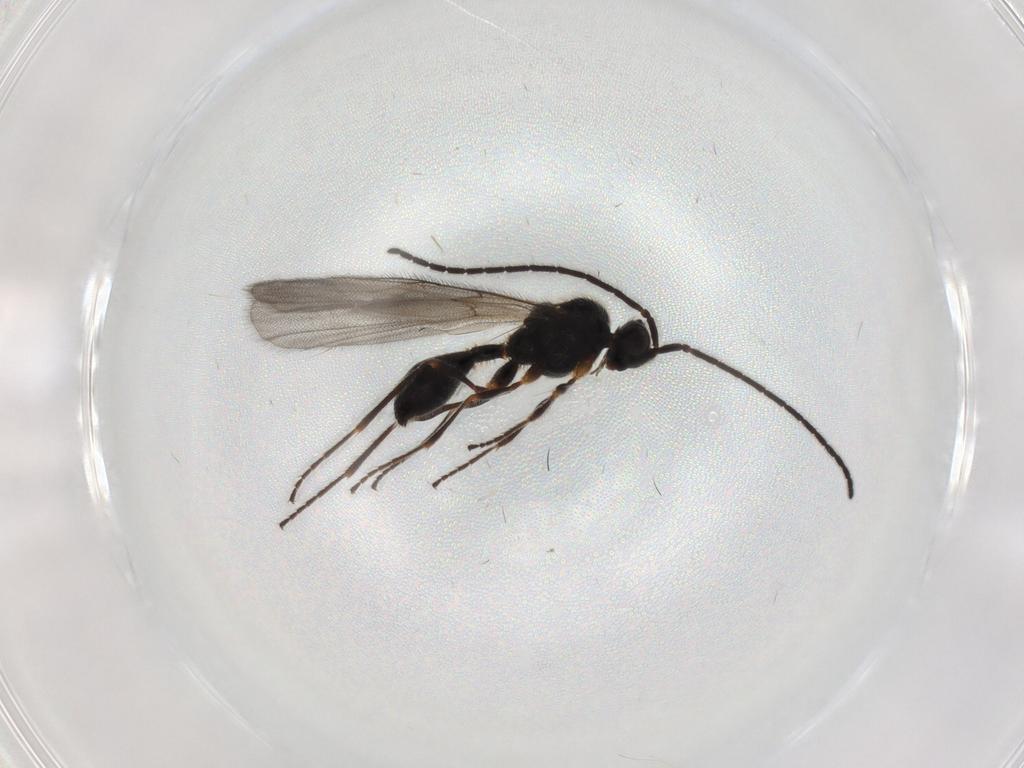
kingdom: Animalia
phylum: Arthropoda
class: Insecta
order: Hymenoptera
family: Diapriidae
